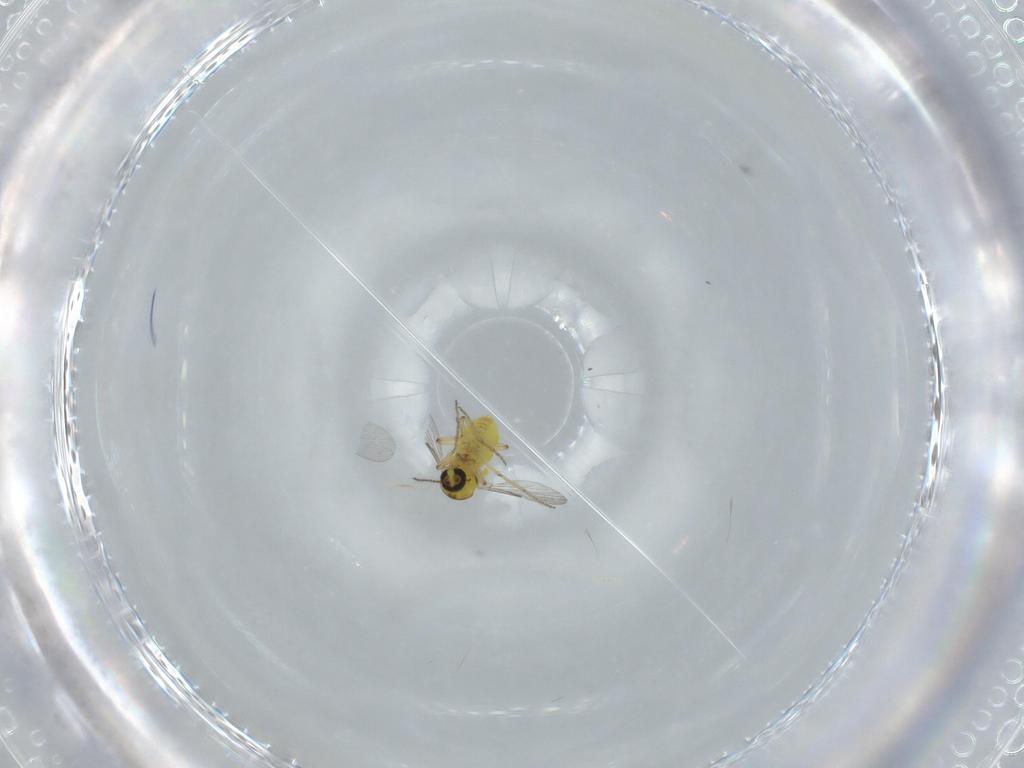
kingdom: Animalia
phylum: Arthropoda
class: Insecta
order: Diptera
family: Ceratopogonidae
